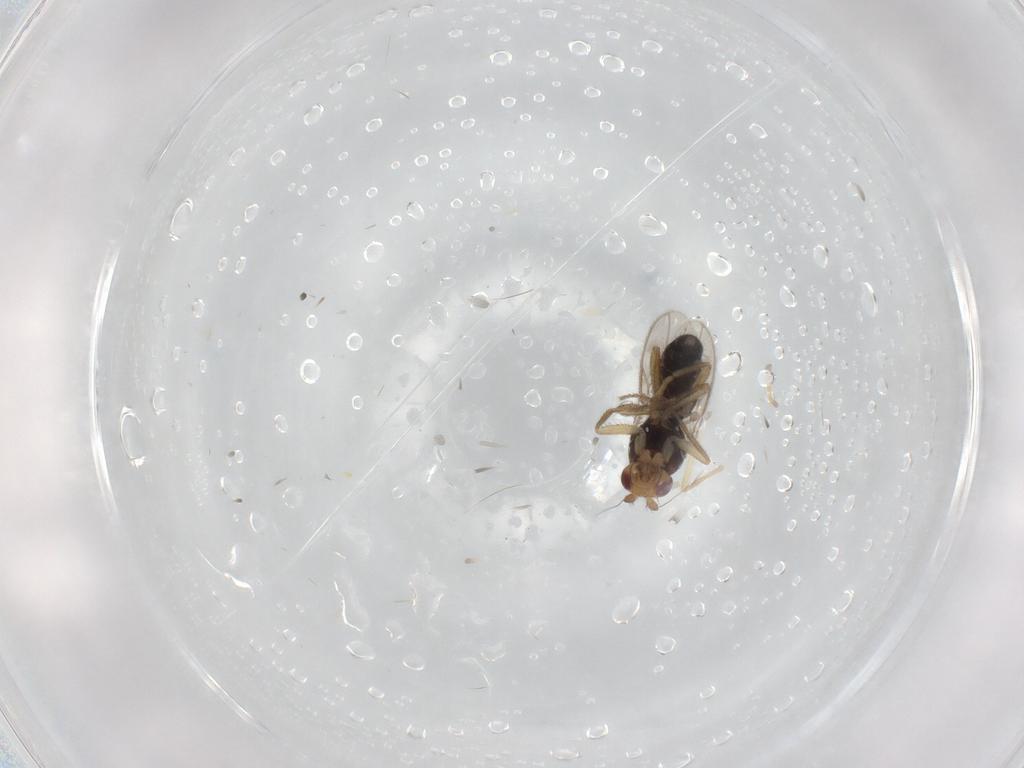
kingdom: Animalia
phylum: Arthropoda
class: Insecta
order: Diptera
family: Sphaeroceridae
